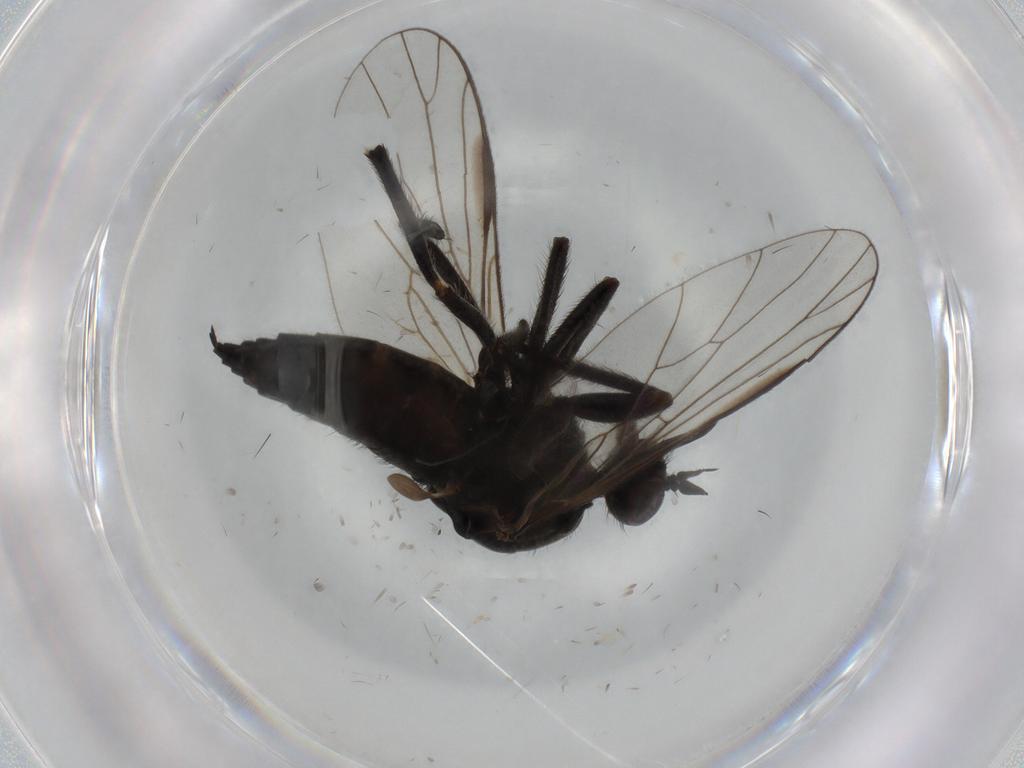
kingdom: Animalia
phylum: Arthropoda
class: Insecta
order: Diptera
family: Empididae
